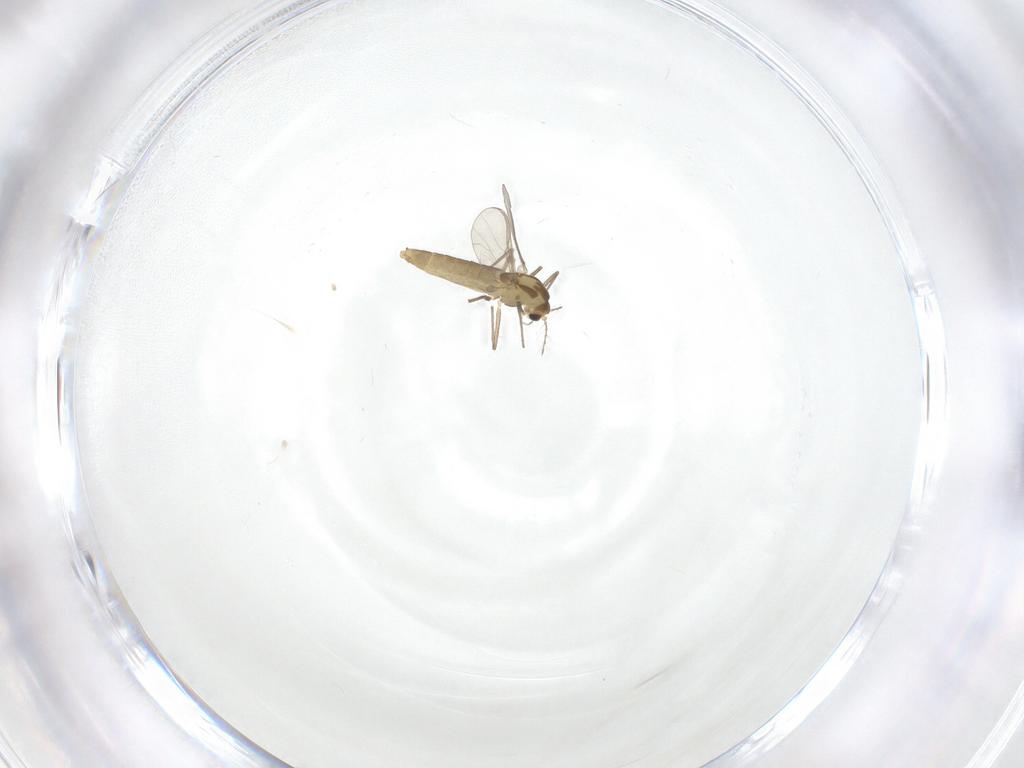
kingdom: Animalia
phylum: Arthropoda
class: Insecta
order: Diptera
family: Chironomidae
